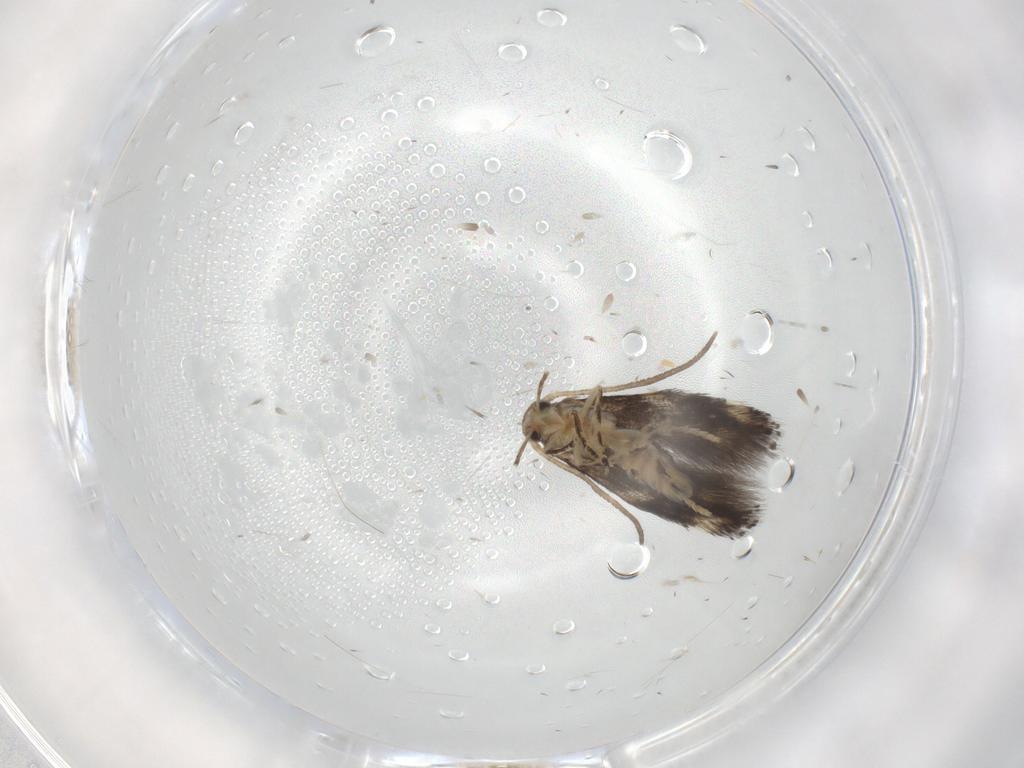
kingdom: Animalia
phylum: Arthropoda
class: Insecta
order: Lepidoptera
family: Elachistidae
